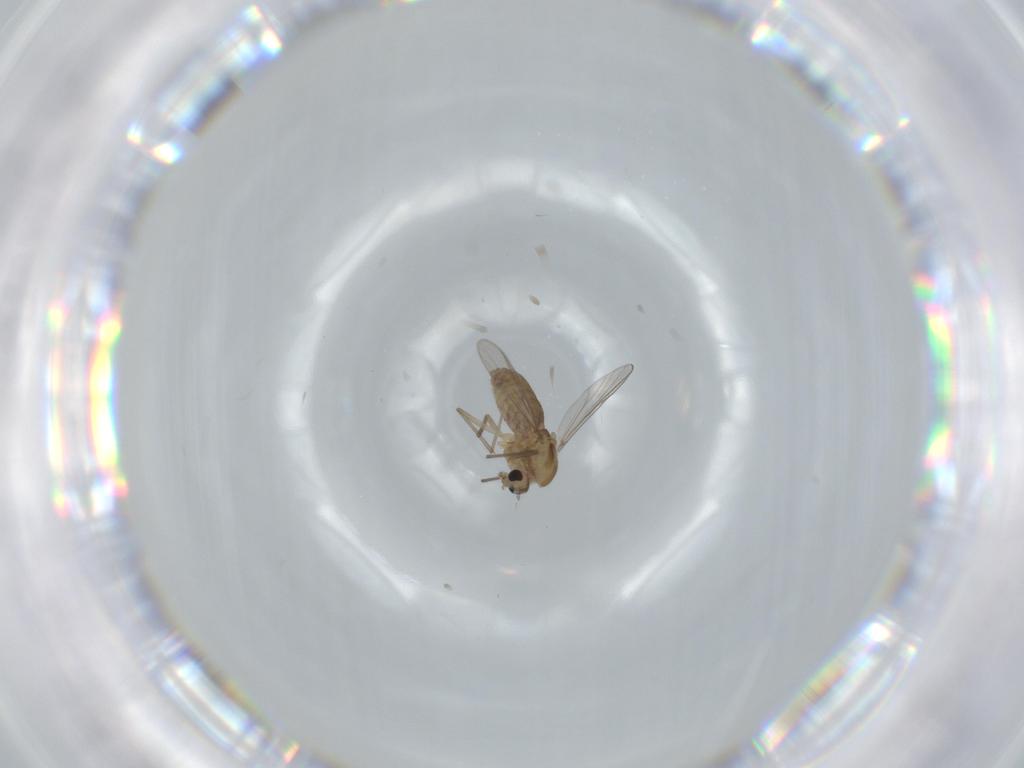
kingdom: Animalia
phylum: Arthropoda
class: Insecta
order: Diptera
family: Chironomidae
